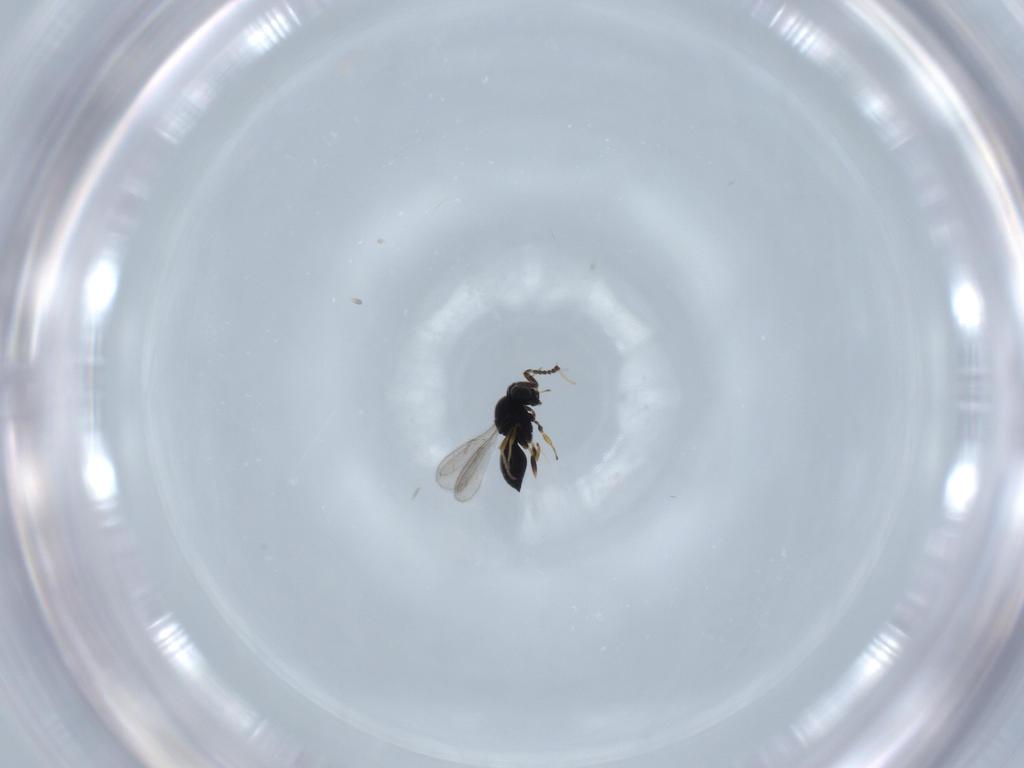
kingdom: Animalia
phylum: Arthropoda
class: Insecta
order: Hymenoptera
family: Scelionidae
